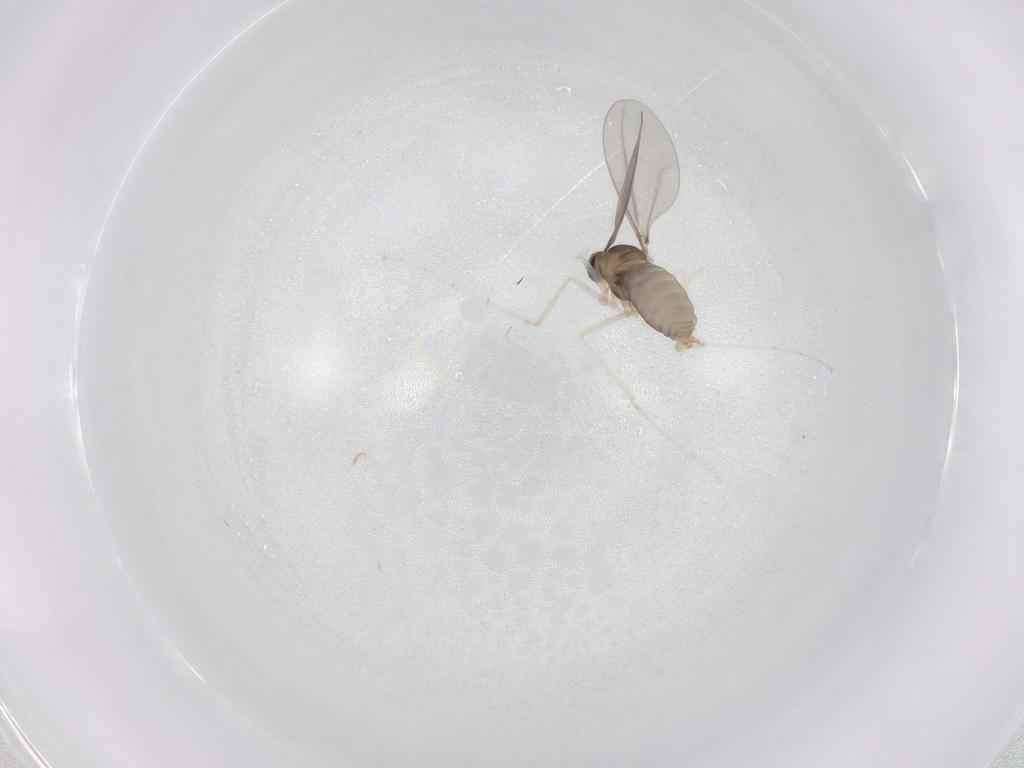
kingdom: Animalia
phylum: Arthropoda
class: Insecta
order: Diptera
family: Cecidomyiidae
